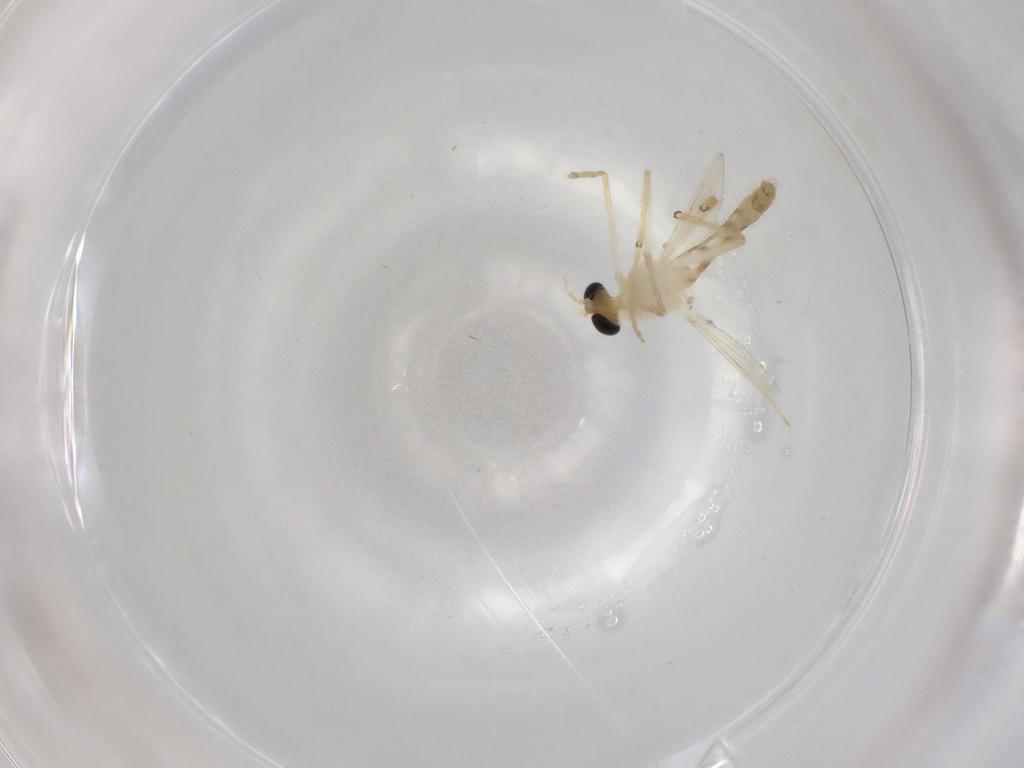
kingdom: Animalia
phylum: Arthropoda
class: Insecta
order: Diptera
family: Chironomidae
